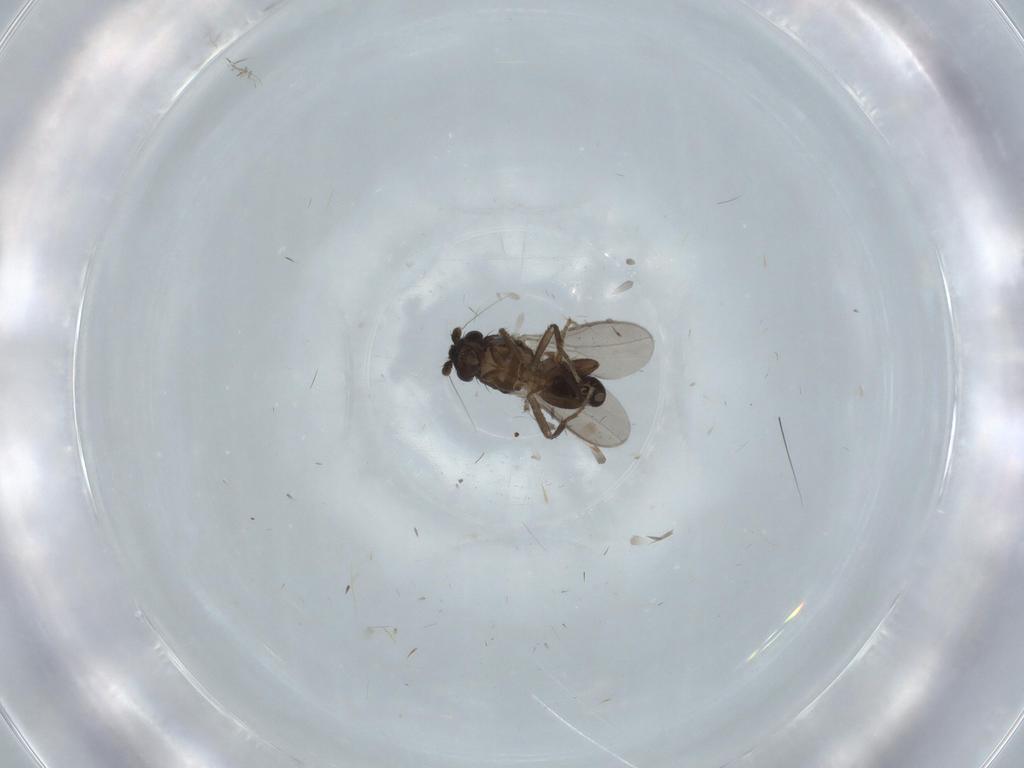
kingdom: Animalia
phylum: Arthropoda
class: Insecta
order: Diptera
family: Sphaeroceridae
